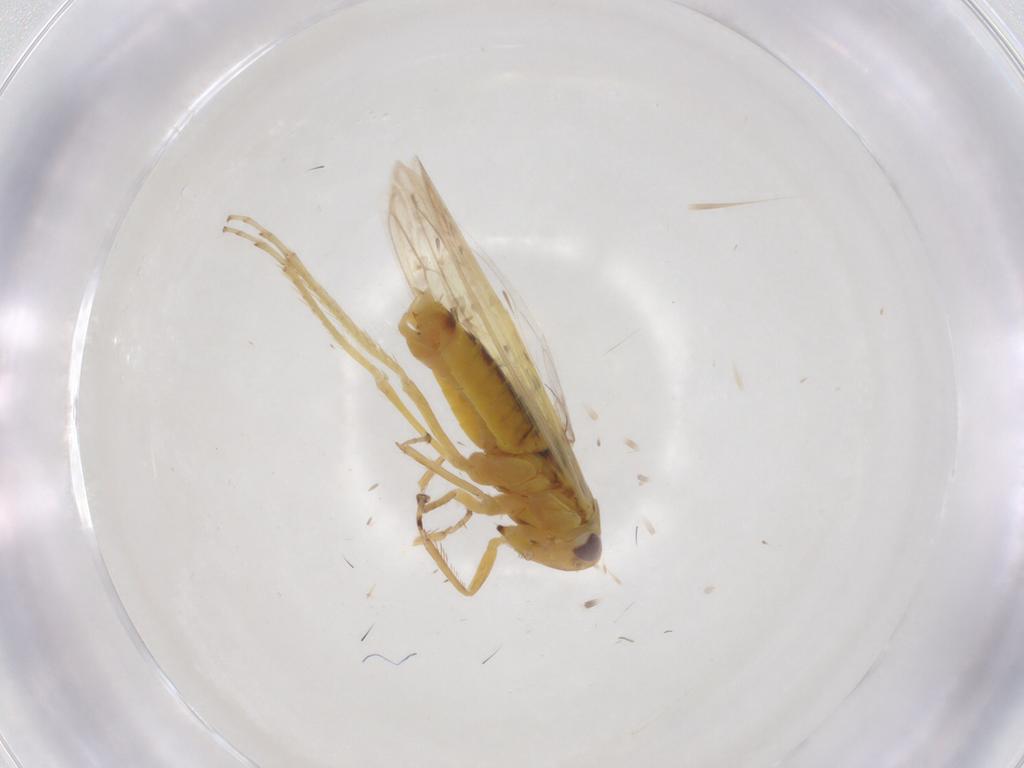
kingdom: Animalia
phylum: Arthropoda
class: Insecta
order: Hemiptera
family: Cicadellidae
